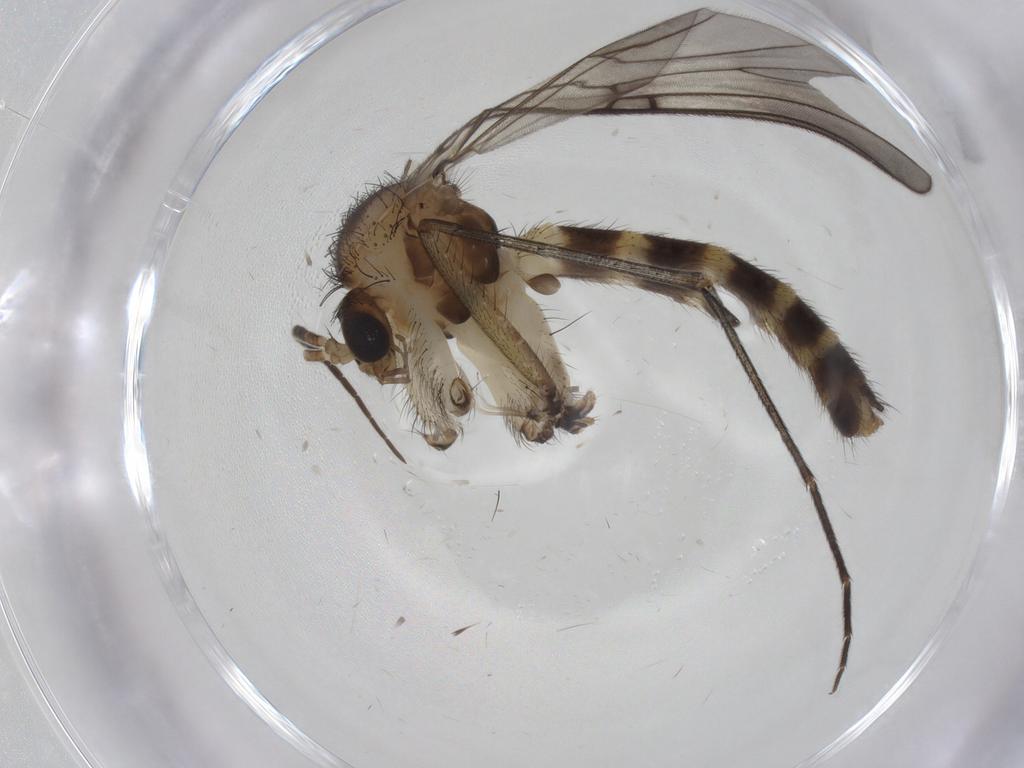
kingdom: Animalia
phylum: Arthropoda
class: Insecta
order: Diptera
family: Mycetophilidae
